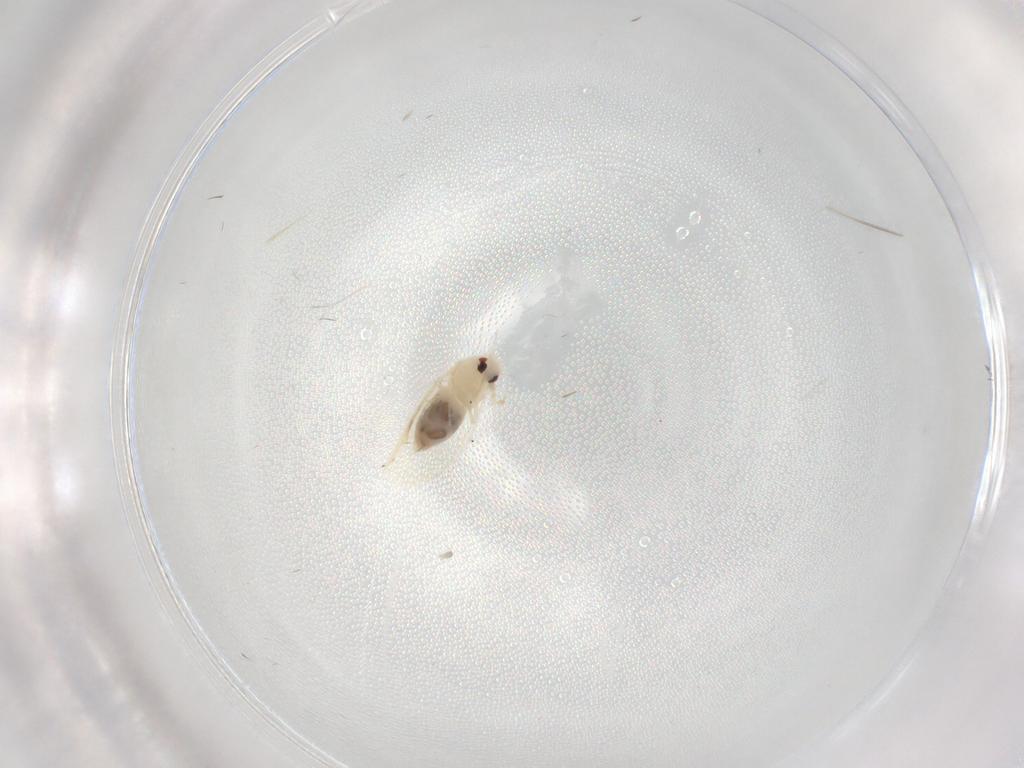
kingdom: Animalia
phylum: Arthropoda
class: Insecta
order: Hemiptera
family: Aleyrodidae
